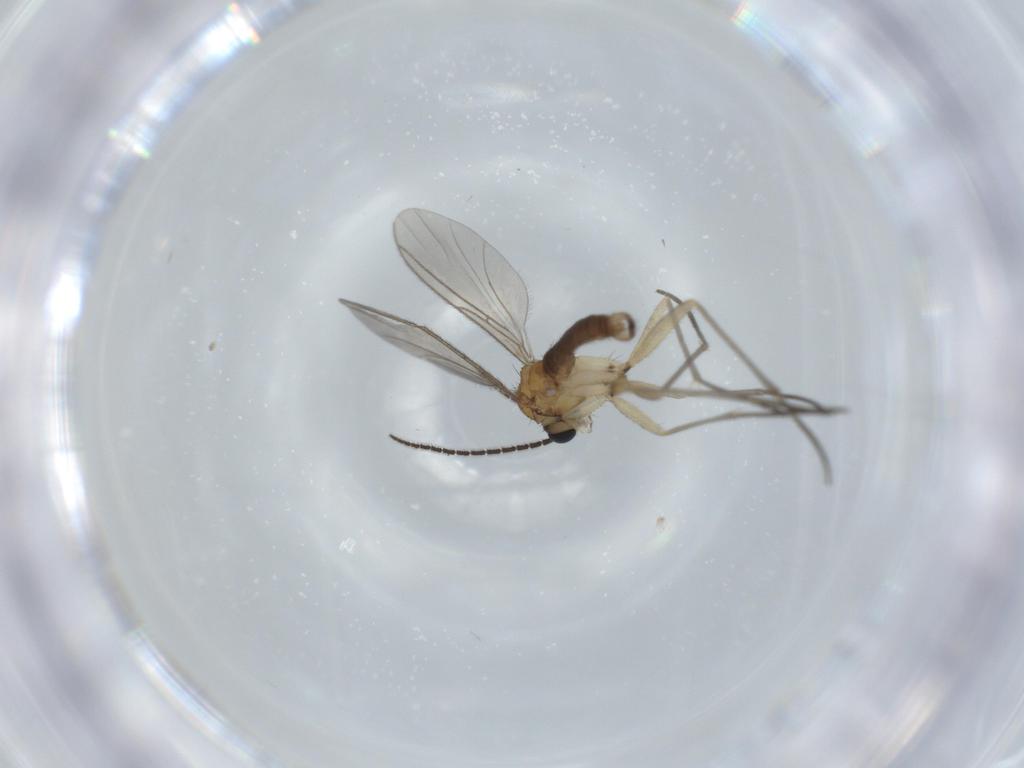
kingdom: Animalia
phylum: Arthropoda
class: Insecta
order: Diptera
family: Sciaridae
